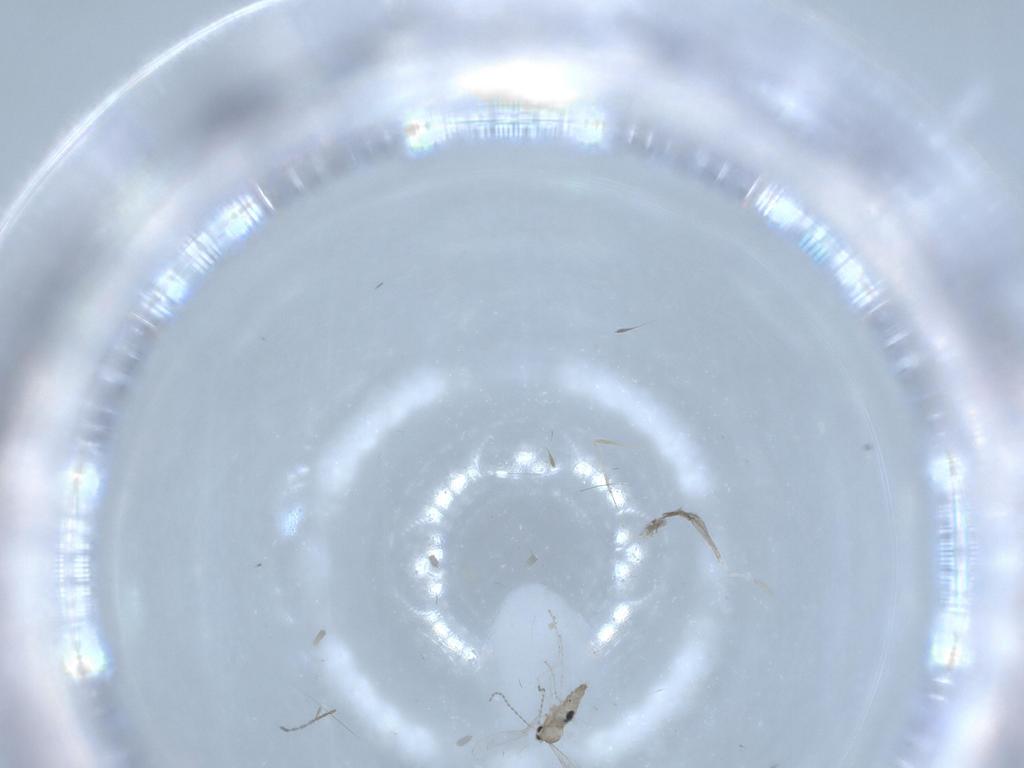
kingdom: Animalia
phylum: Arthropoda
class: Insecta
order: Diptera
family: Cecidomyiidae
